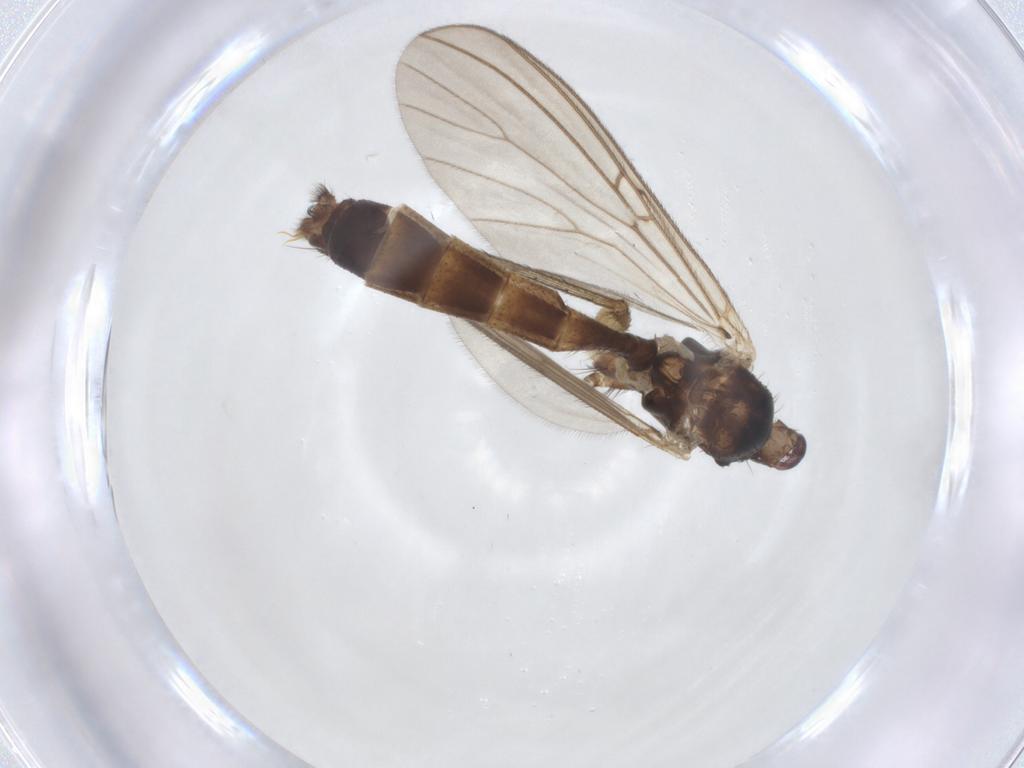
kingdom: Animalia
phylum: Arthropoda
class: Insecta
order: Diptera
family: Mycetophilidae
